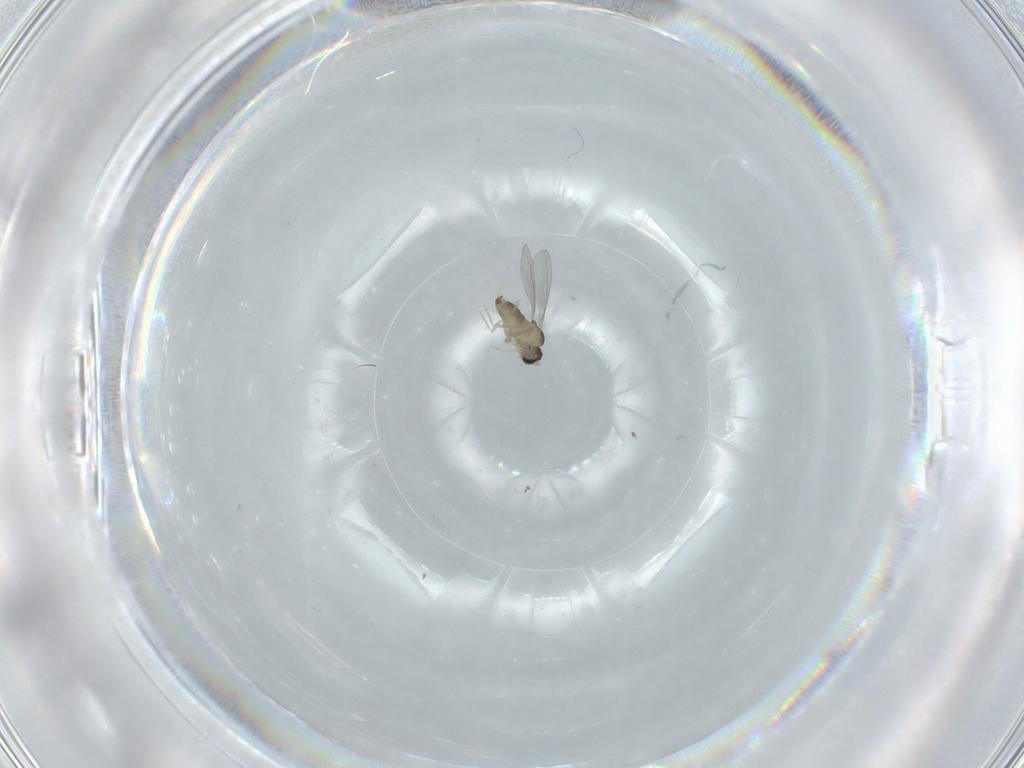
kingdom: Animalia
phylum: Arthropoda
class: Insecta
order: Diptera
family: Cecidomyiidae
